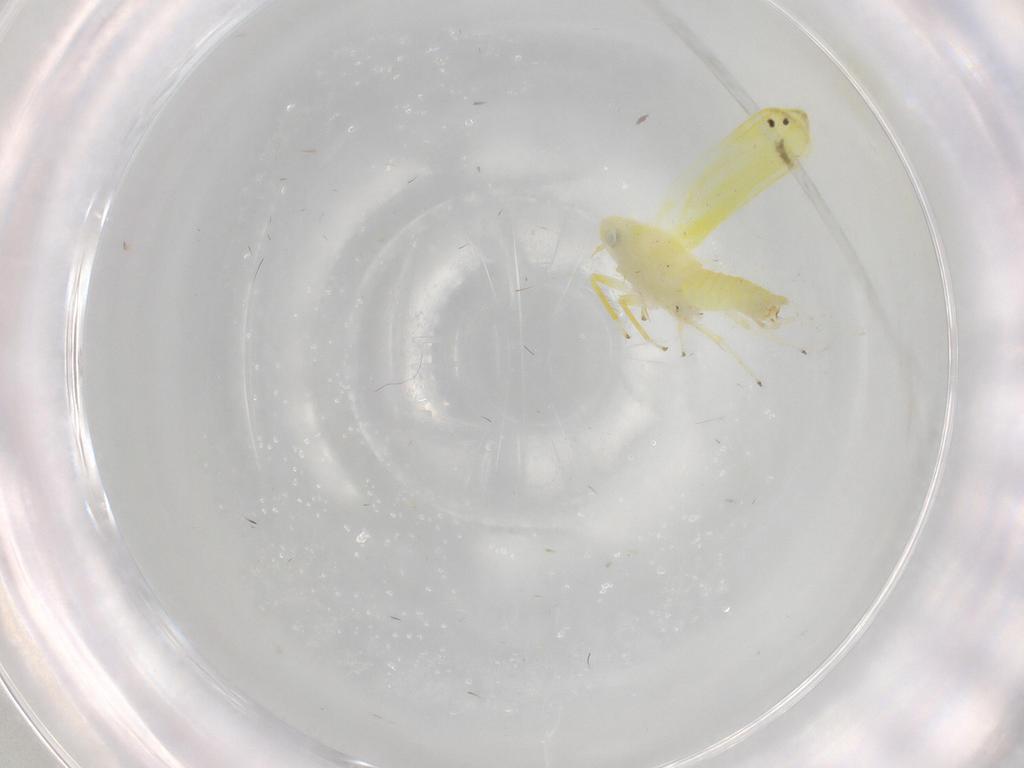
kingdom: Animalia
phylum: Arthropoda
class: Insecta
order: Hemiptera
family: Cicadellidae
